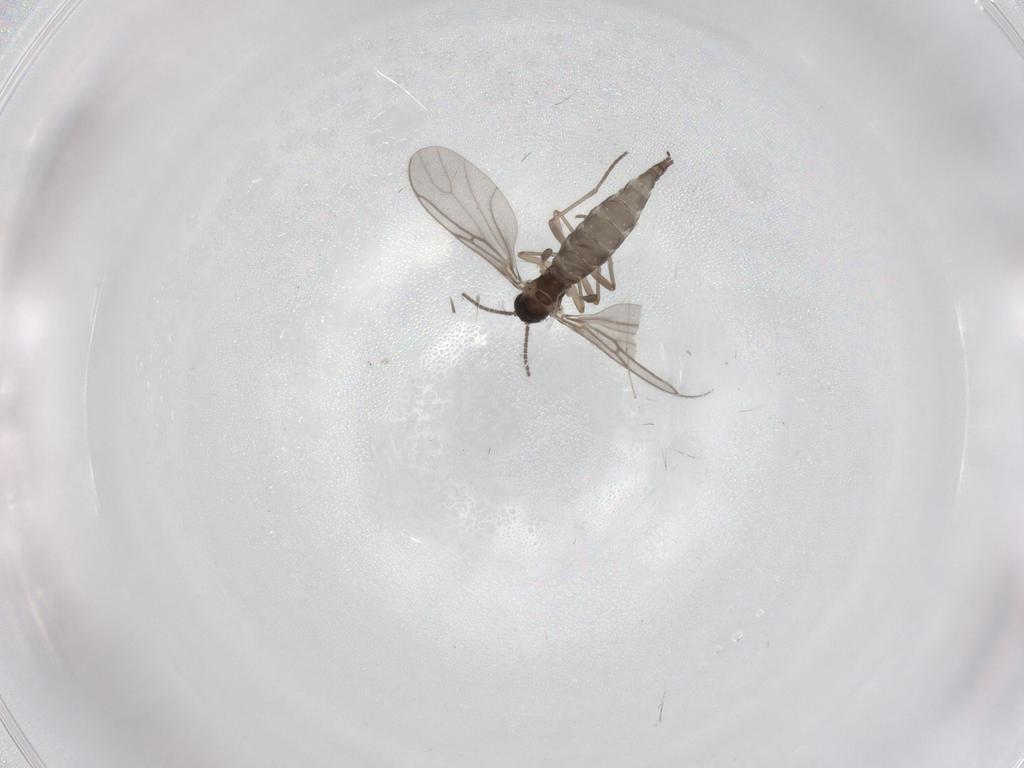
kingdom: Animalia
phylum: Arthropoda
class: Insecta
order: Diptera
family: Sciaridae
